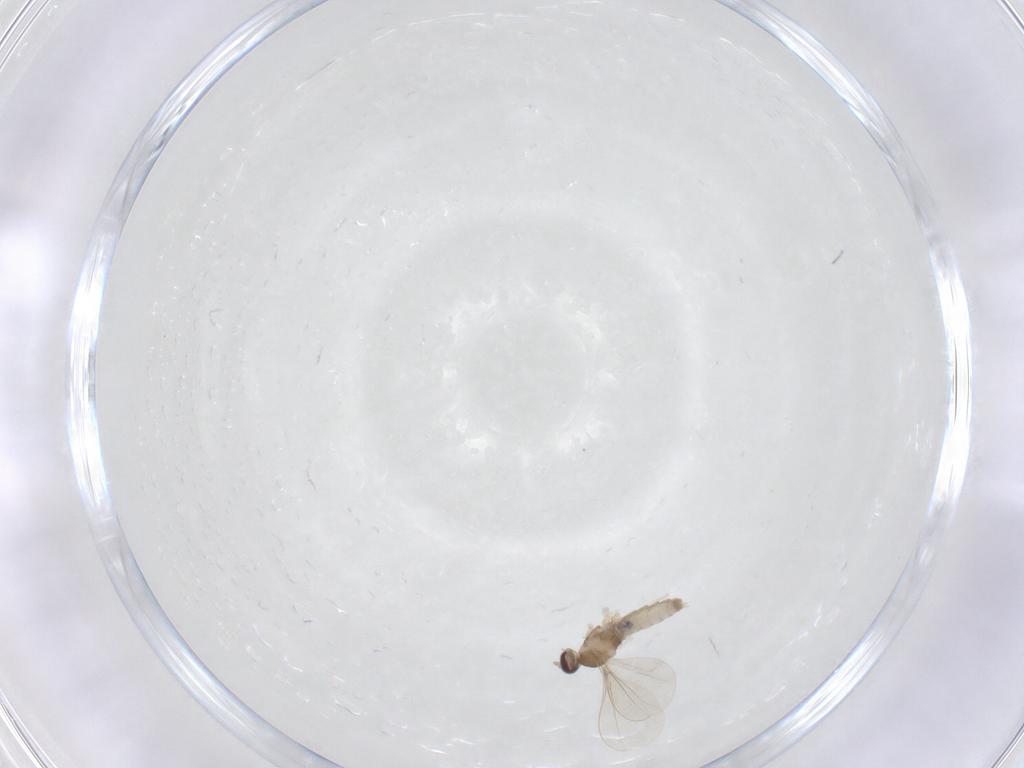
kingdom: Animalia
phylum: Arthropoda
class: Insecta
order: Diptera
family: Cecidomyiidae
